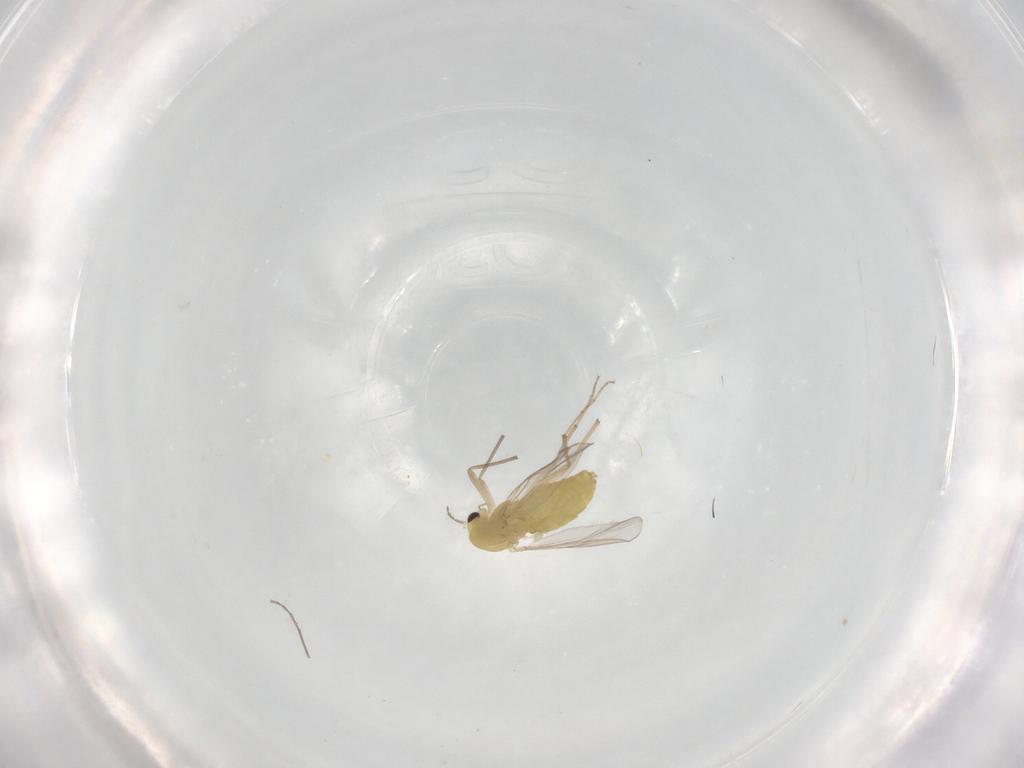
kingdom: Animalia
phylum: Arthropoda
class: Insecta
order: Diptera
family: Chironomidae
